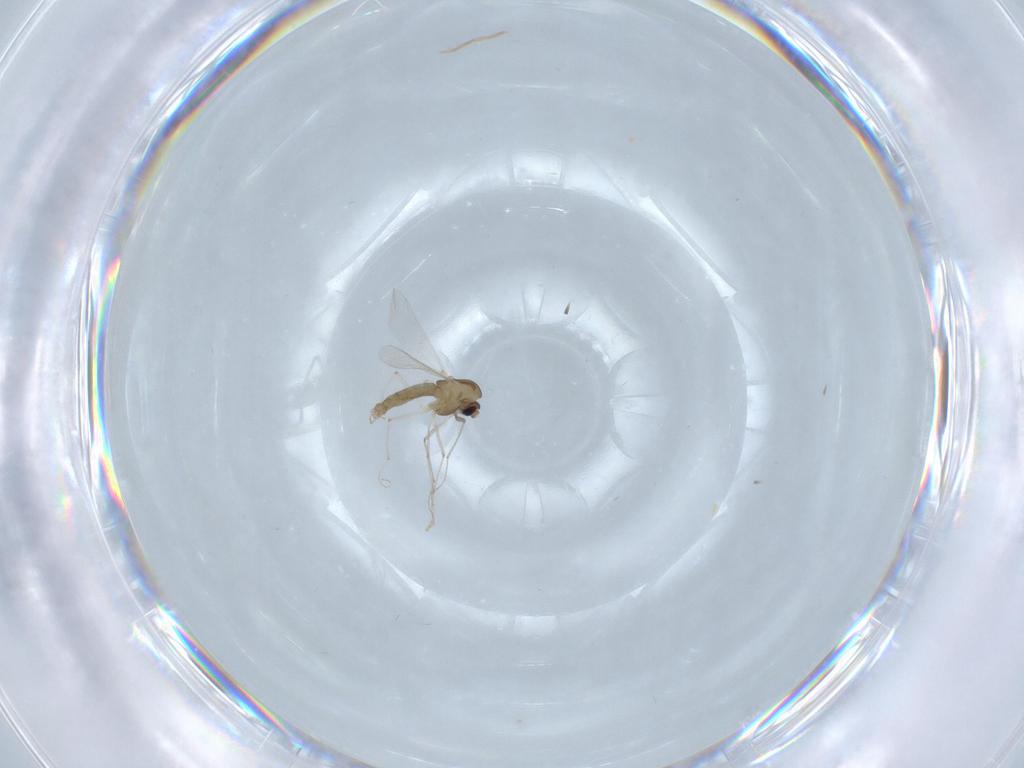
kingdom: Animalia
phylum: Arthropoda
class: Insecta
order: Diptera
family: Chironomidae
